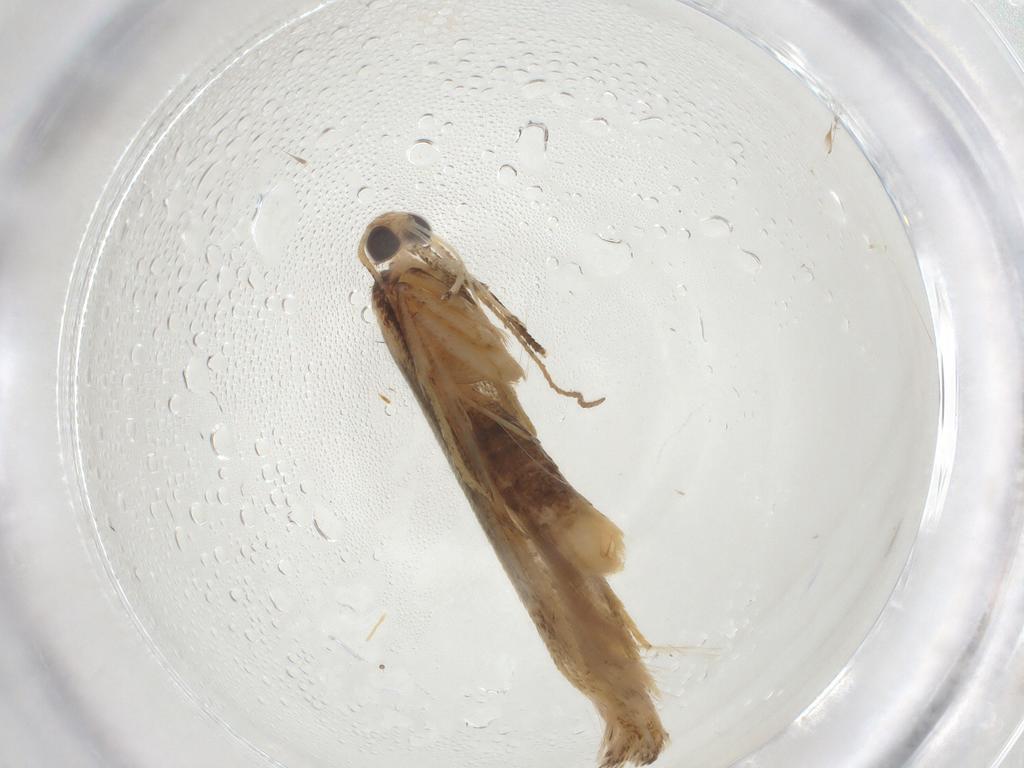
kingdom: Animalia
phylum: Arthropoda
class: Insecta
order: Lepidoptera
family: Gelechiidae
